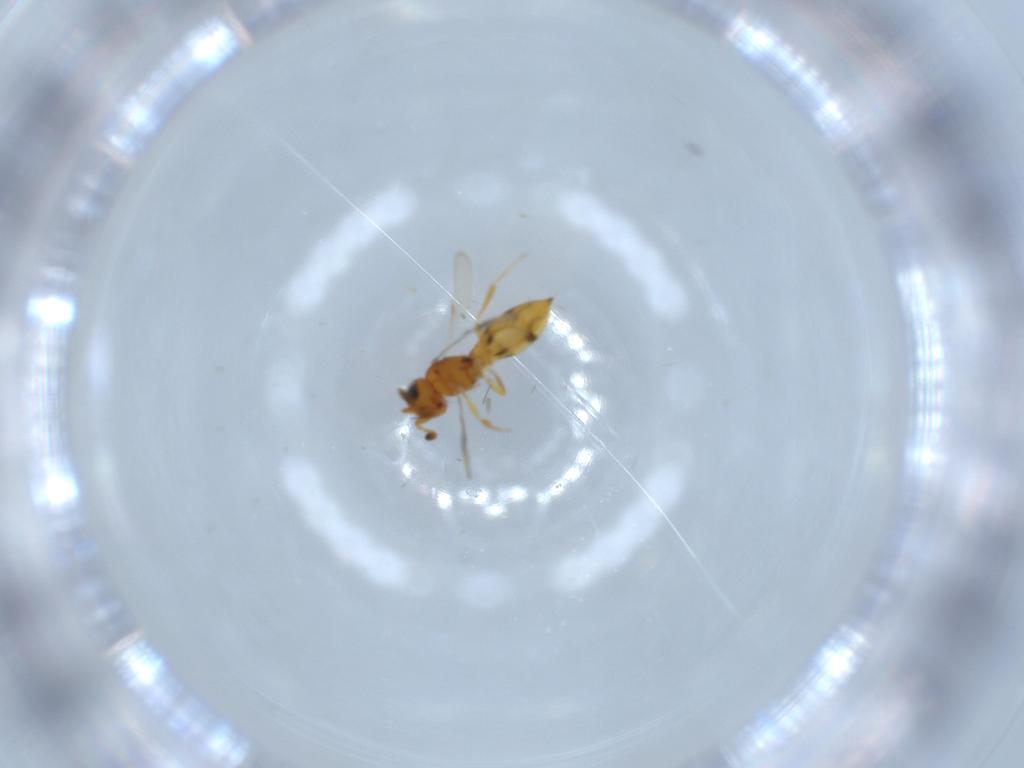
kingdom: Animalia
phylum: Arthropoda
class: Insecta
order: Hymenoptera
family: Scelionidae
